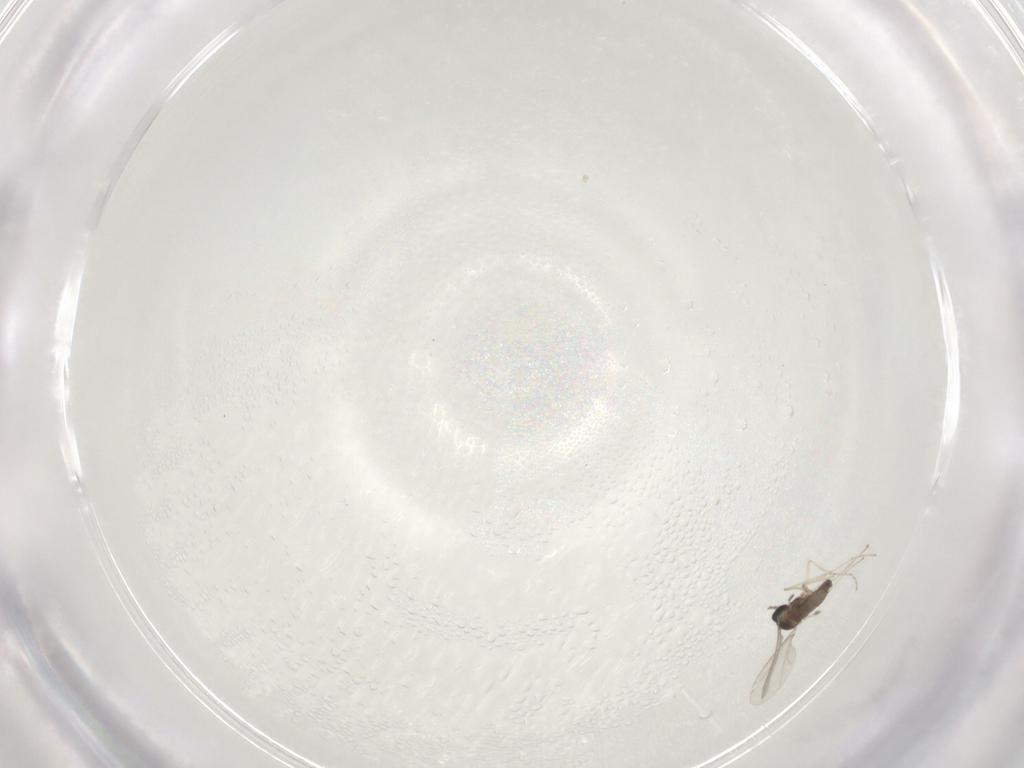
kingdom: Animalia
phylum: Arthropoda
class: Insecta
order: Diptera
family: Cecidomyiidae
